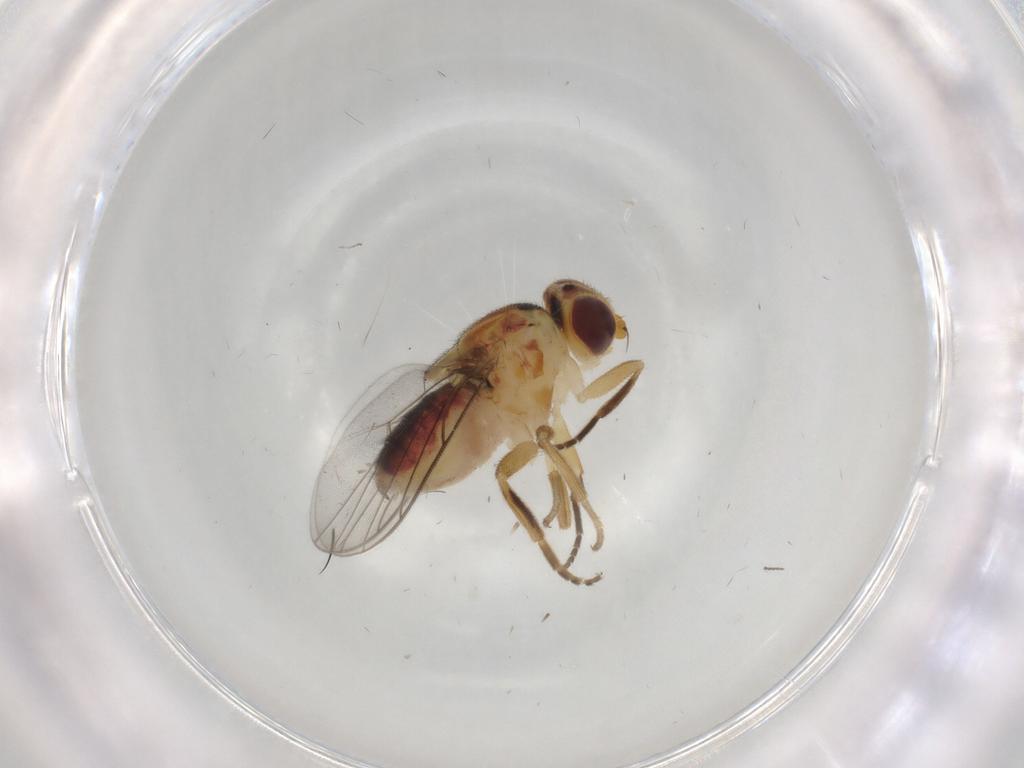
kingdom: Animalia
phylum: Arthropoda
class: Insecta
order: Diptera
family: Chloropidae
